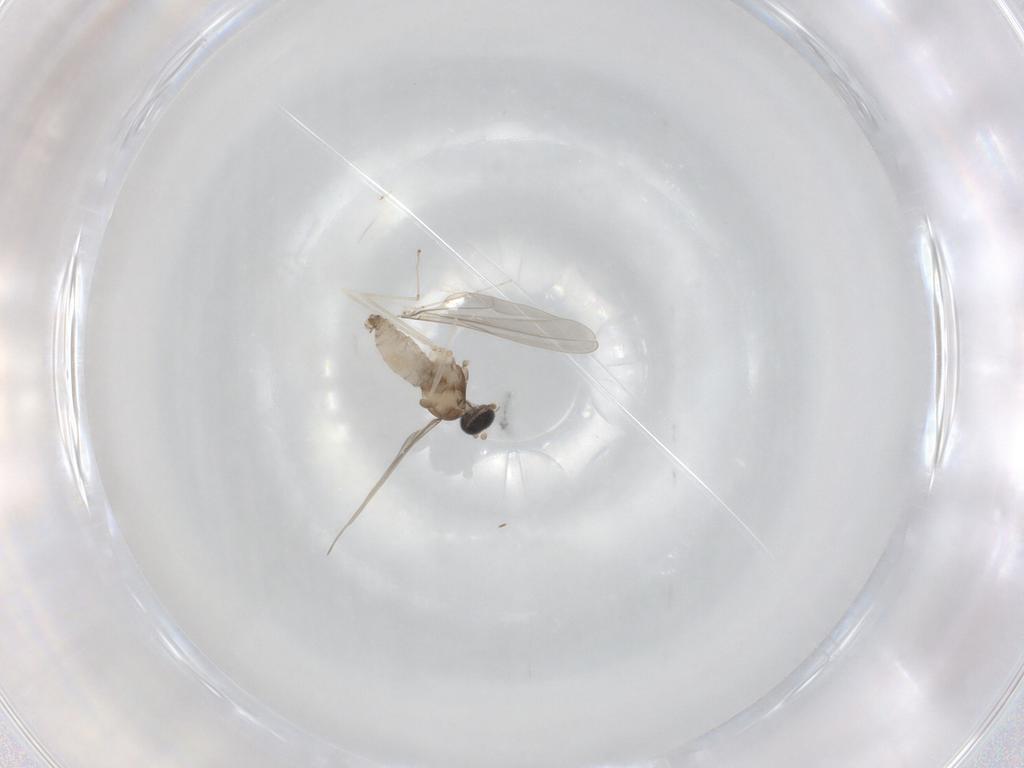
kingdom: Animalia
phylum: Arthropoda
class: Insecta
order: Diptera
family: Cecidomyiidae
